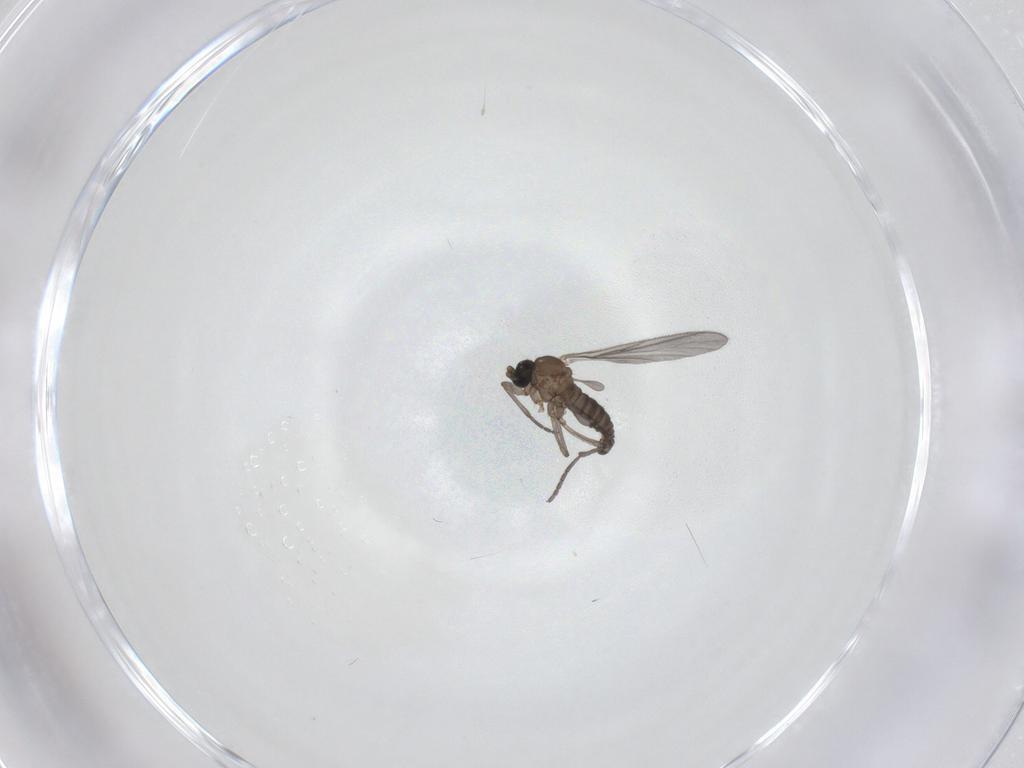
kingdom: Animalia
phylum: Arthropoda
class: Insecta
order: Diptera
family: Sciaridae
